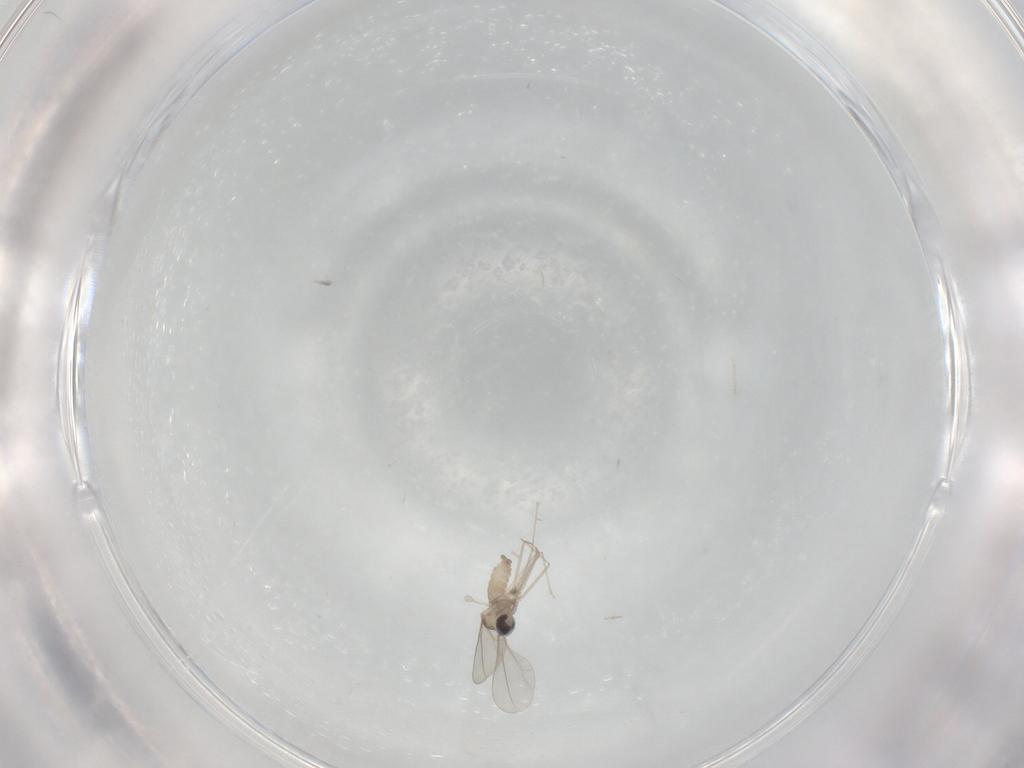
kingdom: Animalia
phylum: Arthropoda
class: Insecta
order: Diptera
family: Cecidomyiidae
